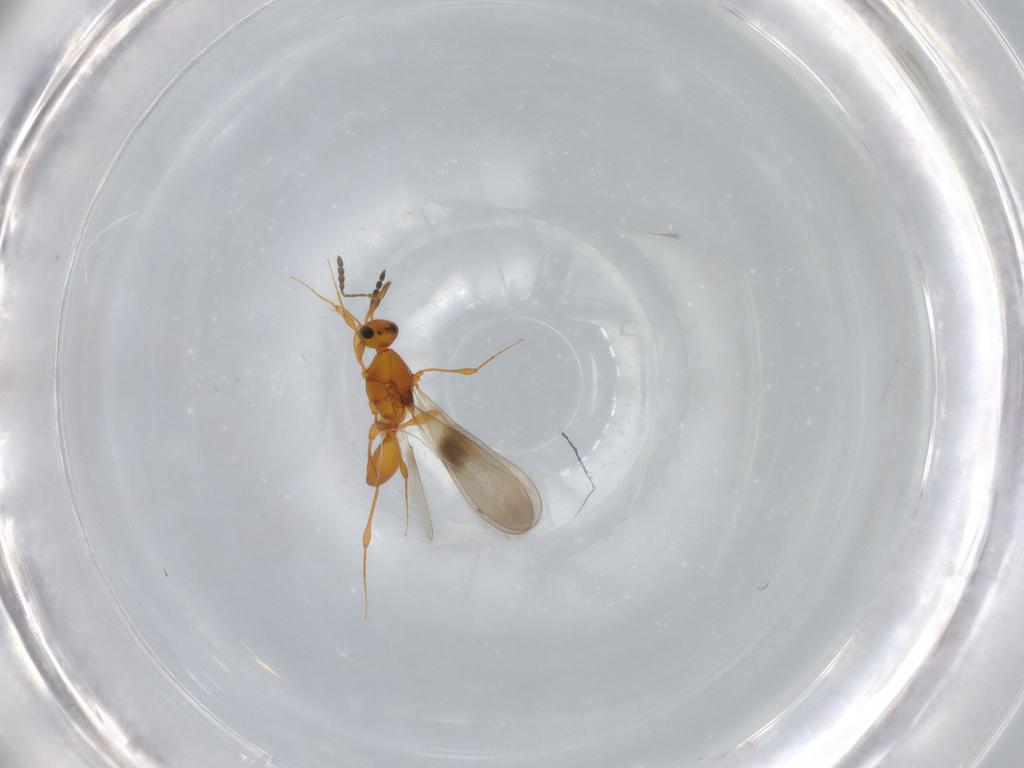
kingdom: Animalia
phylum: Arthropoda
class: Insecta
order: Hymenoptera
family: Platygastridae
